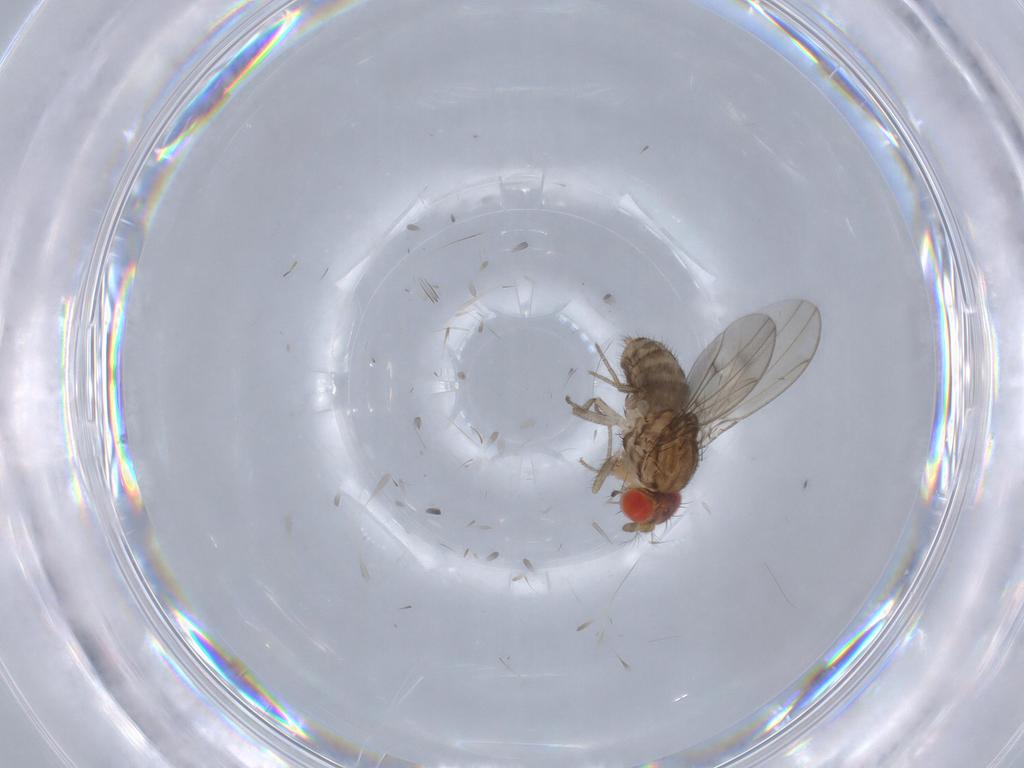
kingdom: Animalia
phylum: Arthropoda
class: Insecta
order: Diptera
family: Drosophilidae
